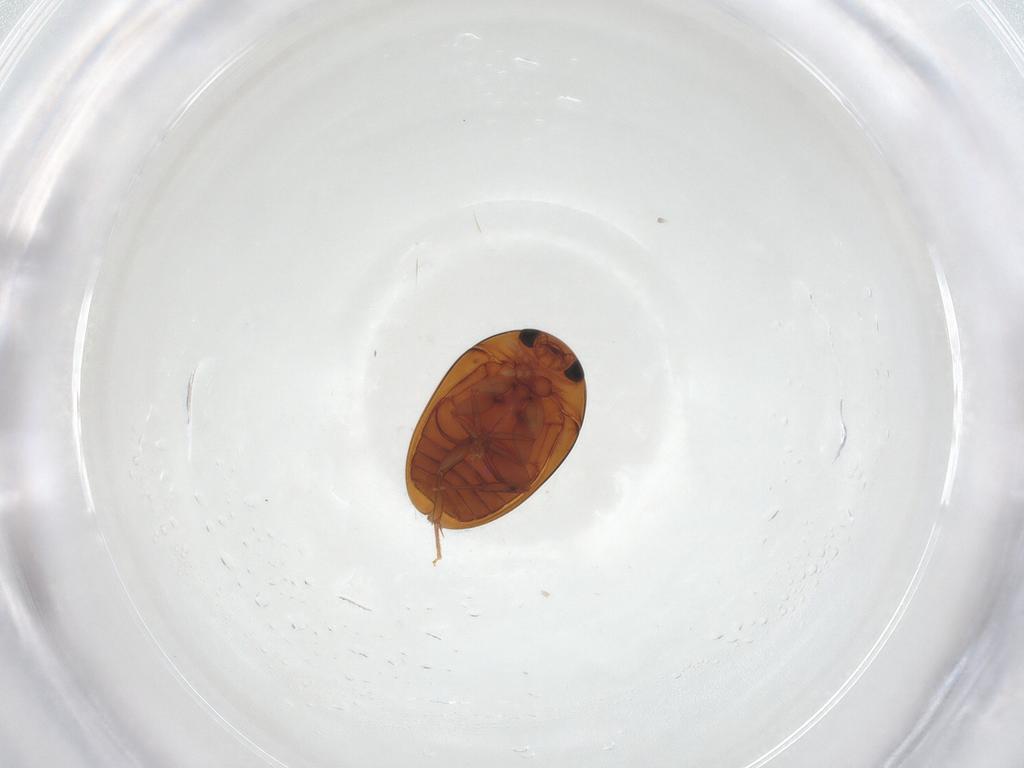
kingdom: Animalia
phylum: Arthropoda
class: Insecta
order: Coleoptera
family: Phalacridae
